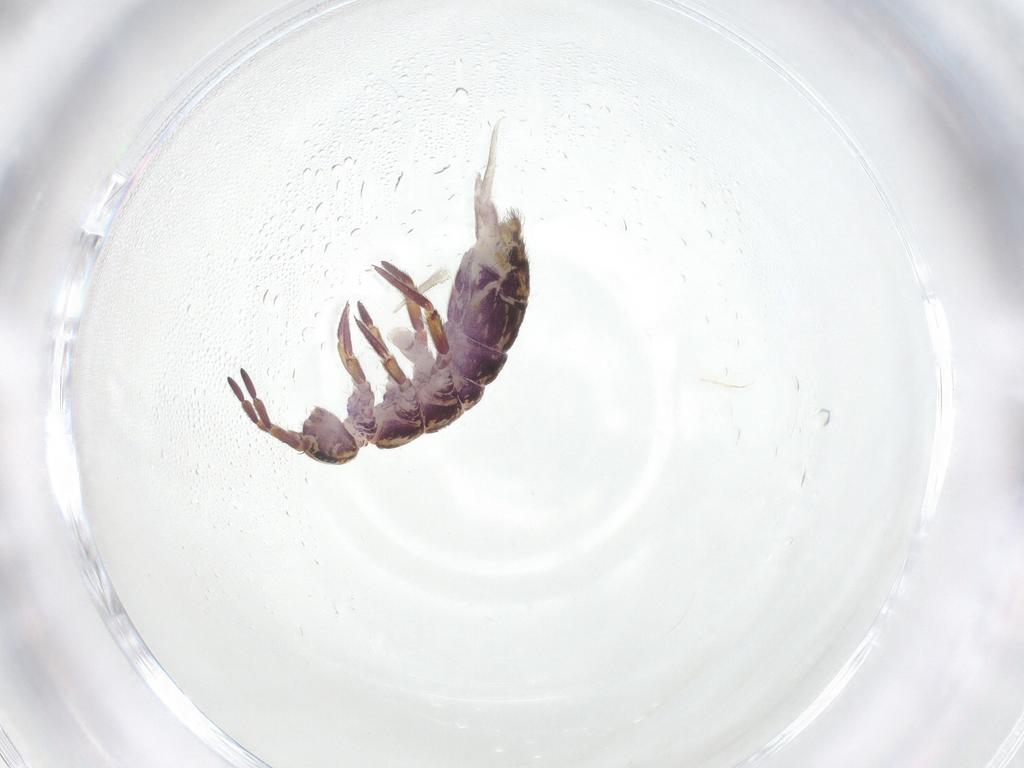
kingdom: Animalia
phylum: Arthropoda
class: Collembola
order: Entomobryomorpha
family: Isotomidae
